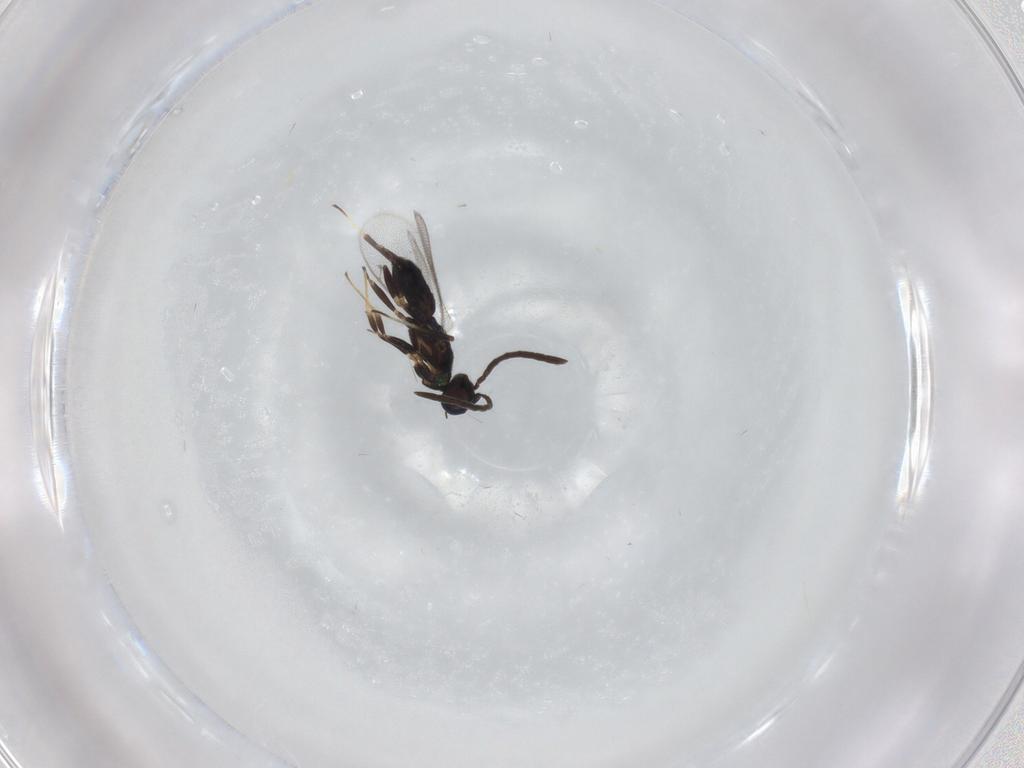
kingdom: Animalia
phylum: Arthropoda
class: Insecta
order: Hymenoptera
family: Eupelmidae
